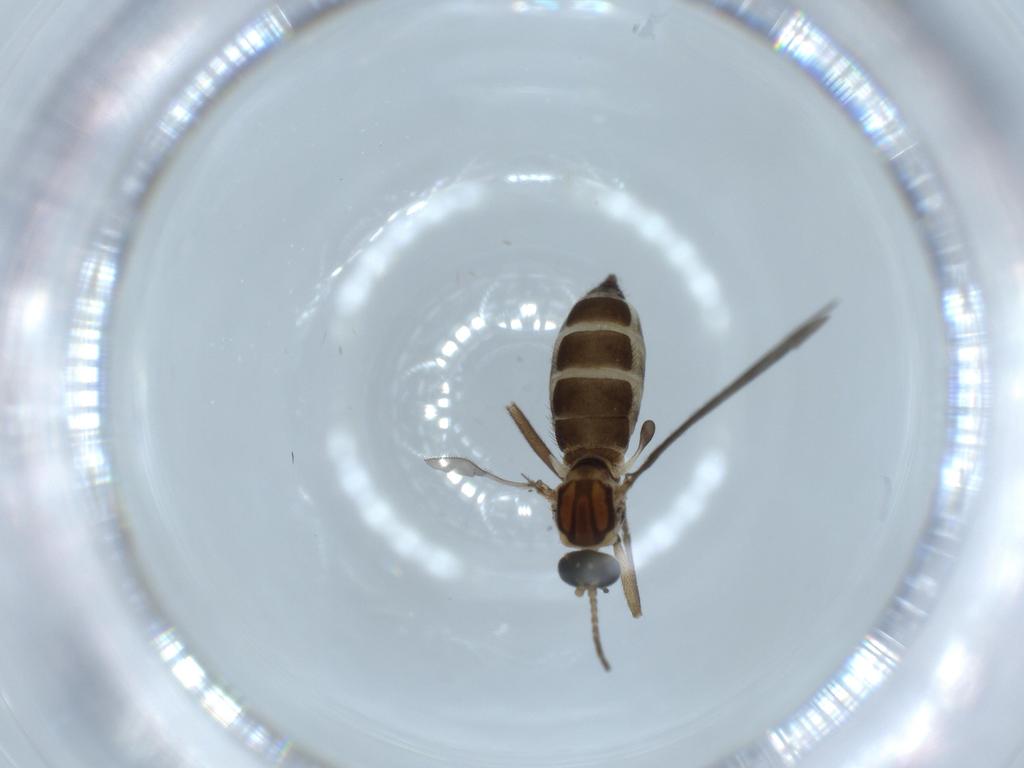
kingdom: Animalia
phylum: Arthropoda
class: Insecta
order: Diptera
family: Sciaridae
